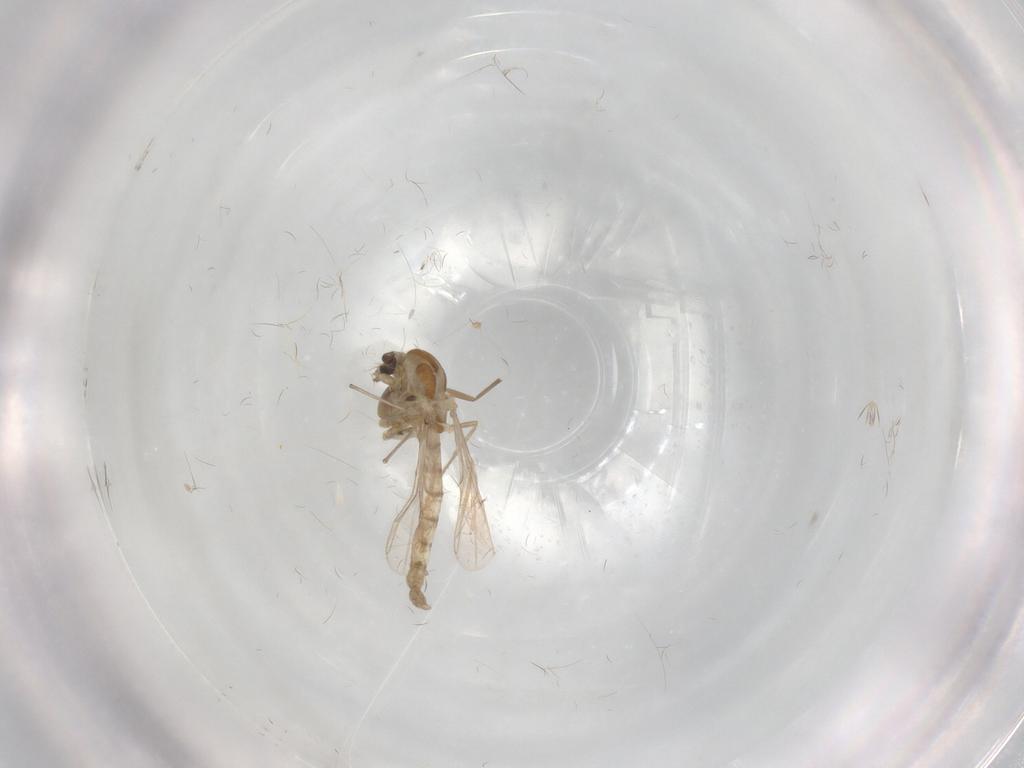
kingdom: Animalia
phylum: Arthropoda
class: Insecta
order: Diptera
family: Chironomidae
